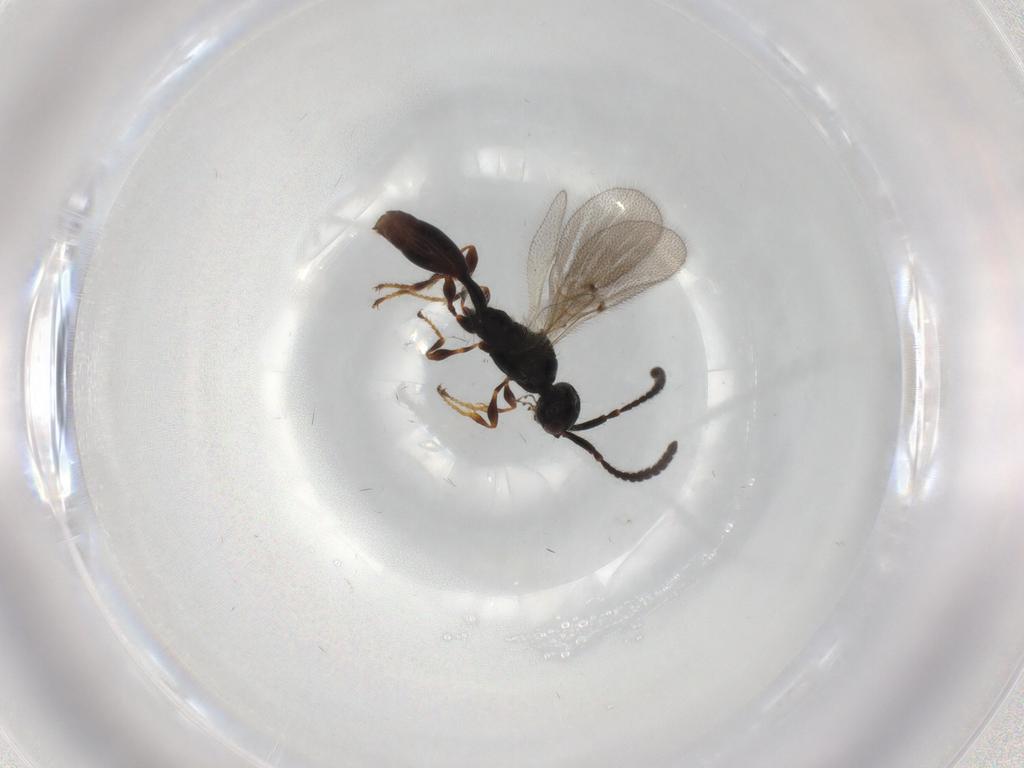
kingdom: Animalia
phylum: Arthropoda
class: Insecta
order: Hymenoptera
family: Diapriidae
